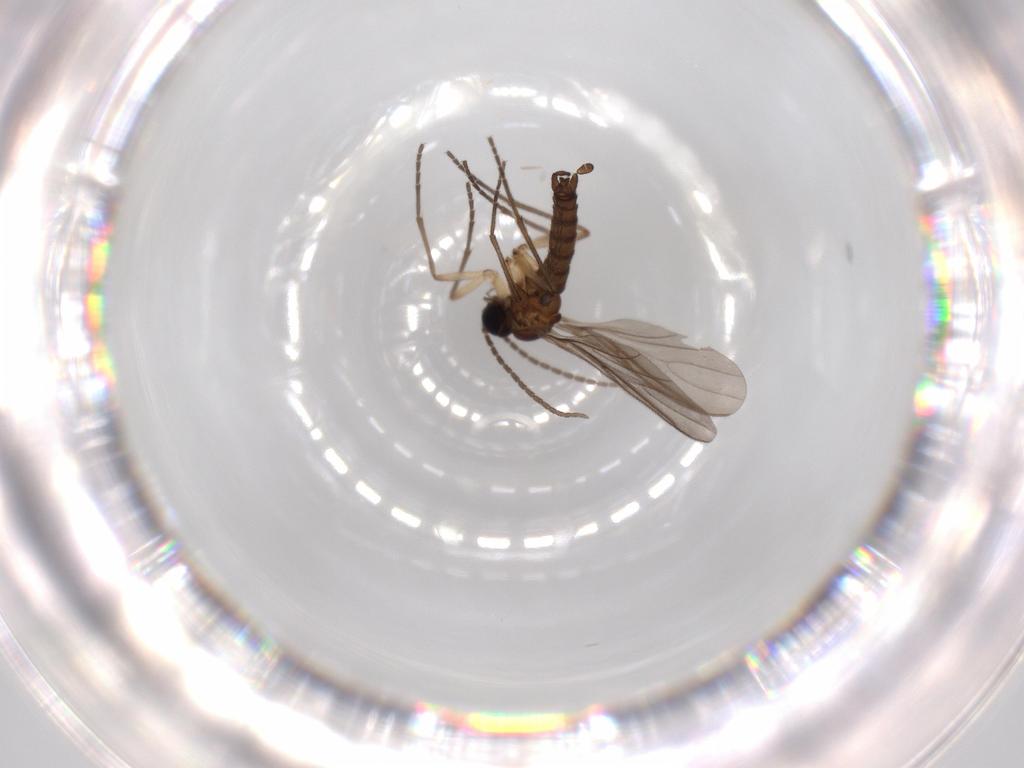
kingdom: Animalia
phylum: Arthropoda
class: Insecta
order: Diptera
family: Sciaridae
